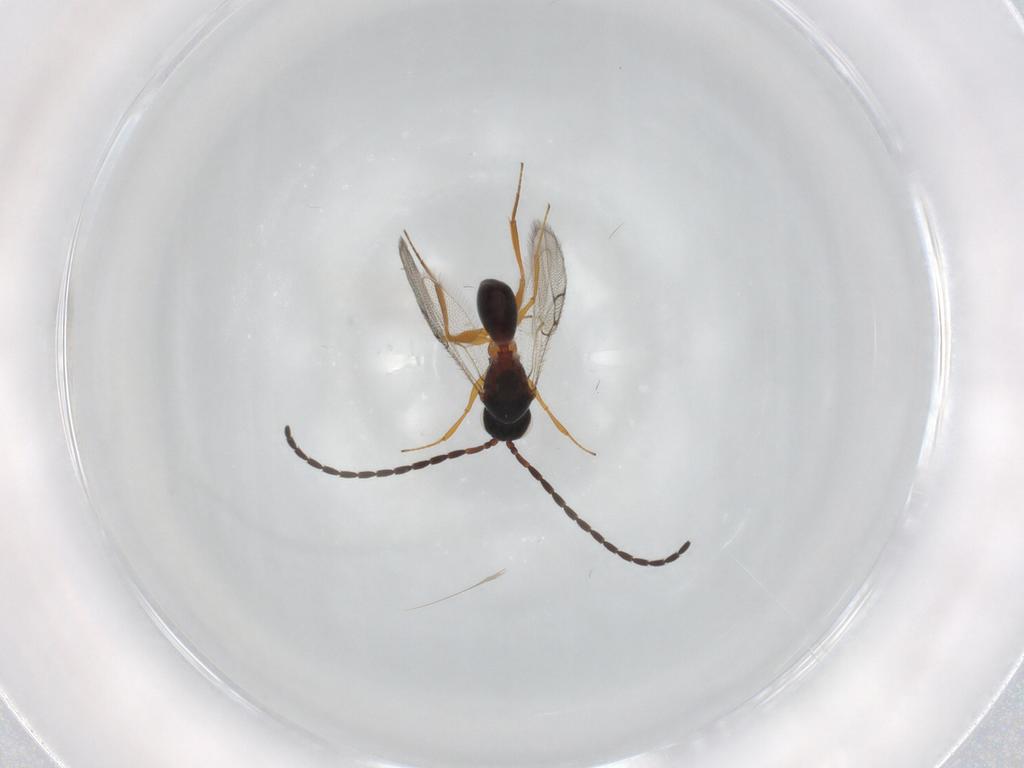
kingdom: Animalia
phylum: Arthropoda
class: Insecta
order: Hymenoptera
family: Figitidae
